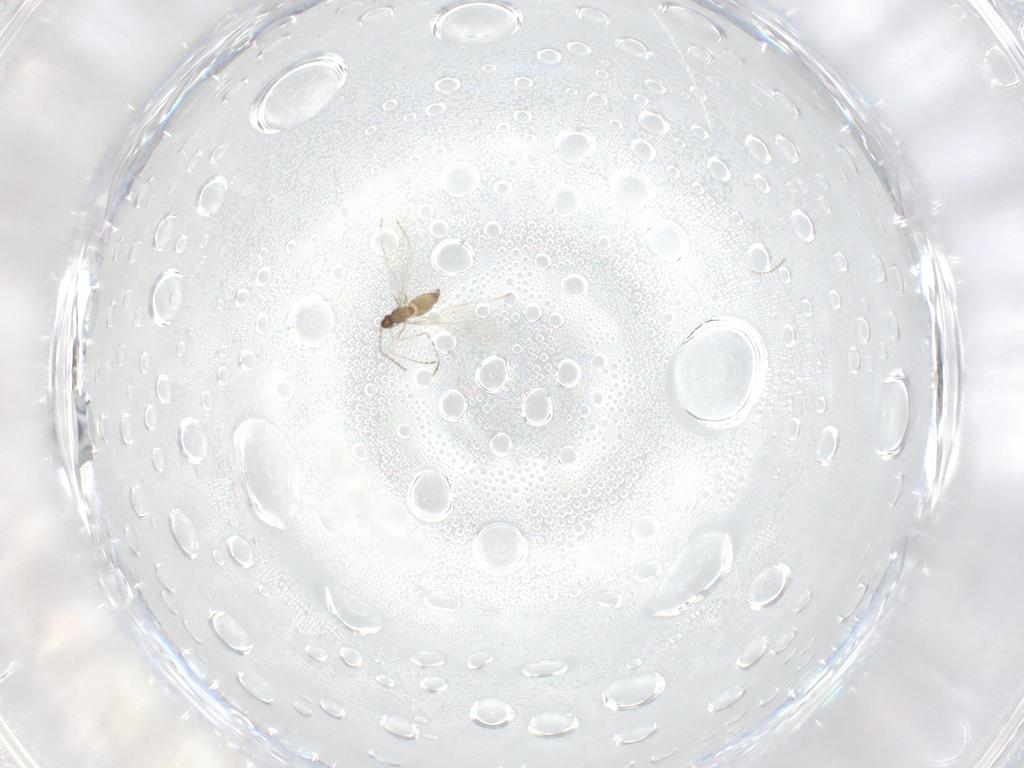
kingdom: Animalia
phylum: Arthropoda
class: Insecta
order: Diptera
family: Cecidomyiidae
